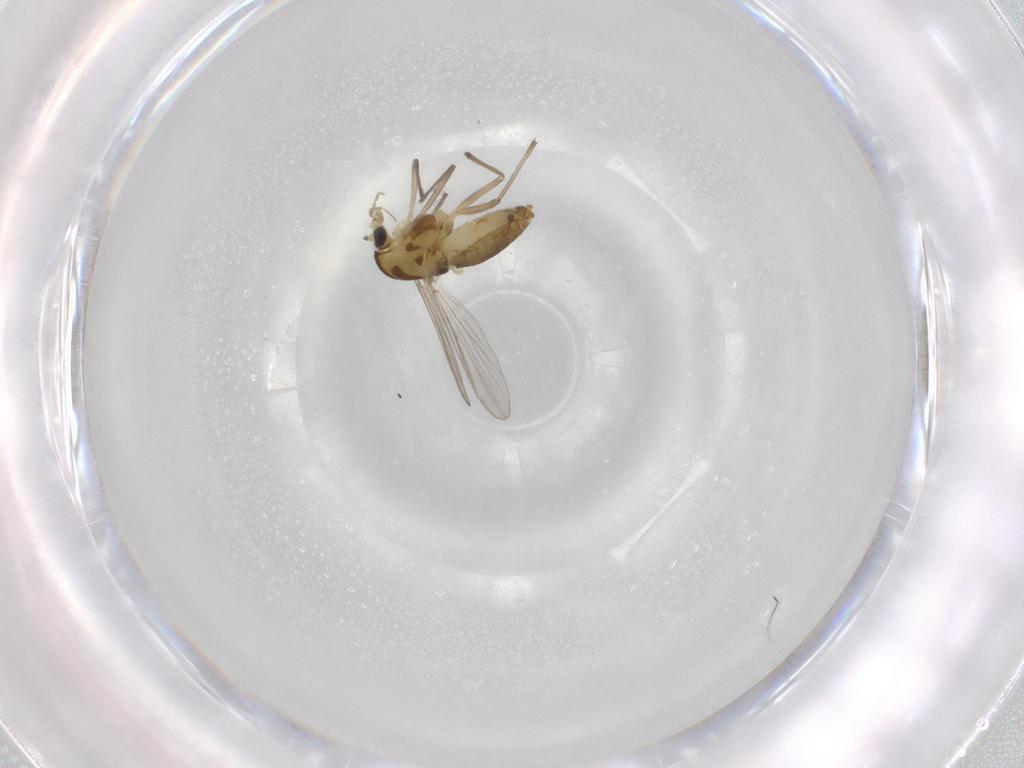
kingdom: Animalia
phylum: Arthropoda
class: Insecta
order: Diptera
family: Chironomidae
